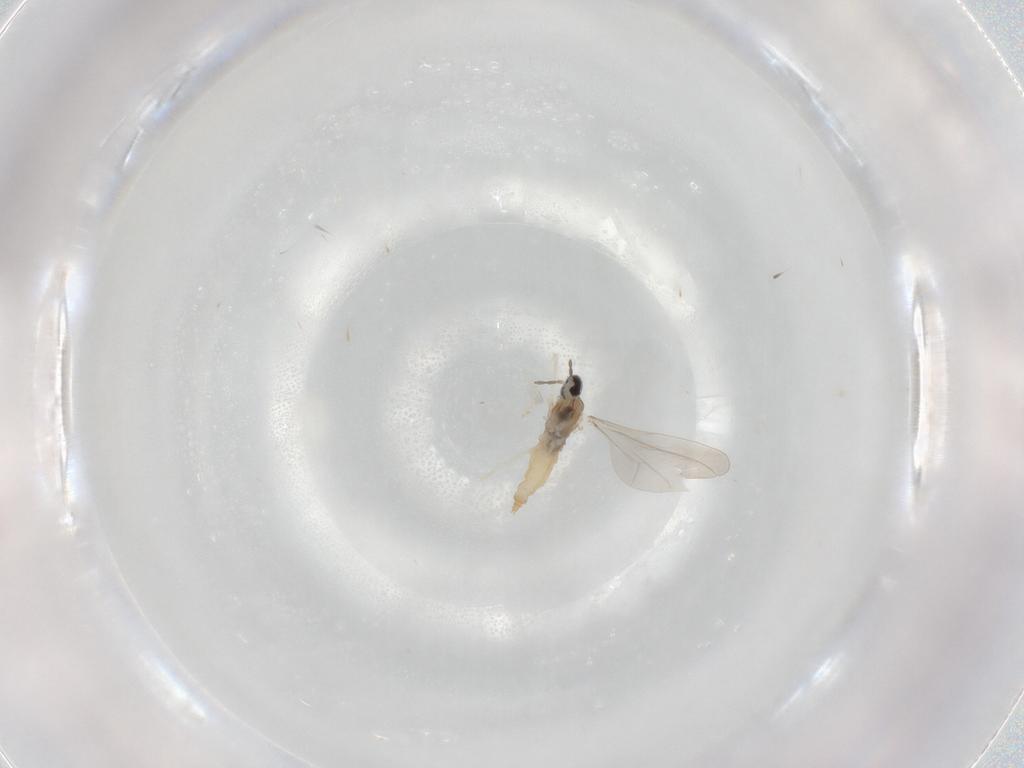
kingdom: Animalia
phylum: Arthropoda
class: Insecta
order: Diptera
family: Cecidomyiidae
